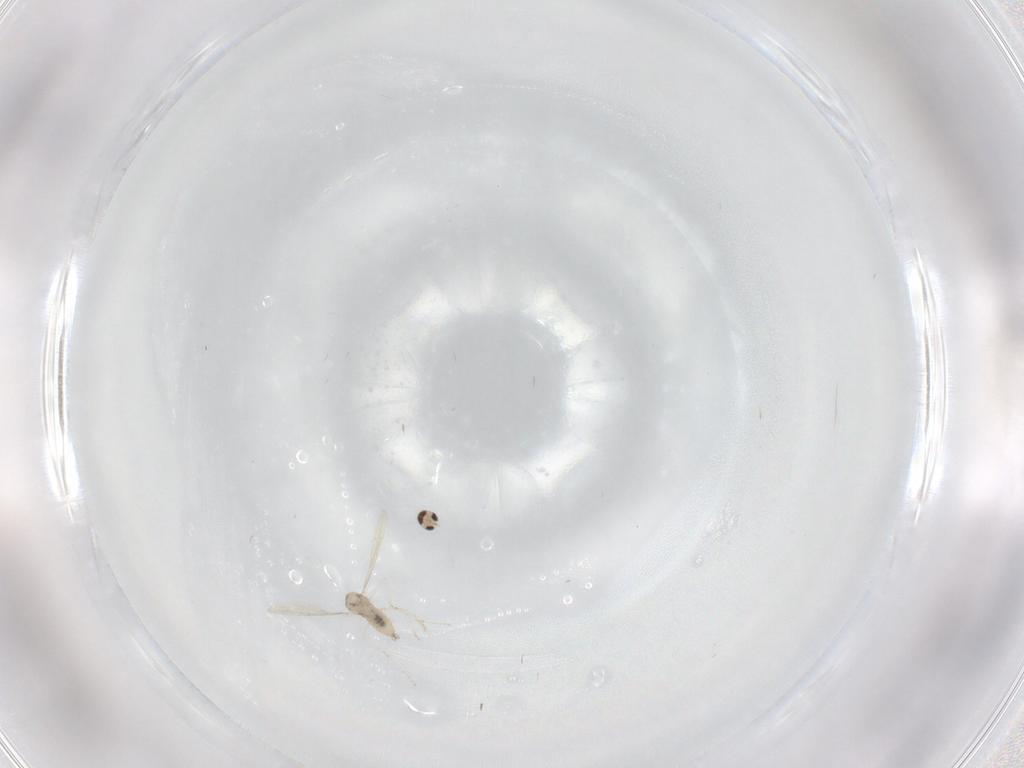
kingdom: Animalia
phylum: Arthropoda
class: Insecta
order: Diptera
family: Cecidomyiidae
